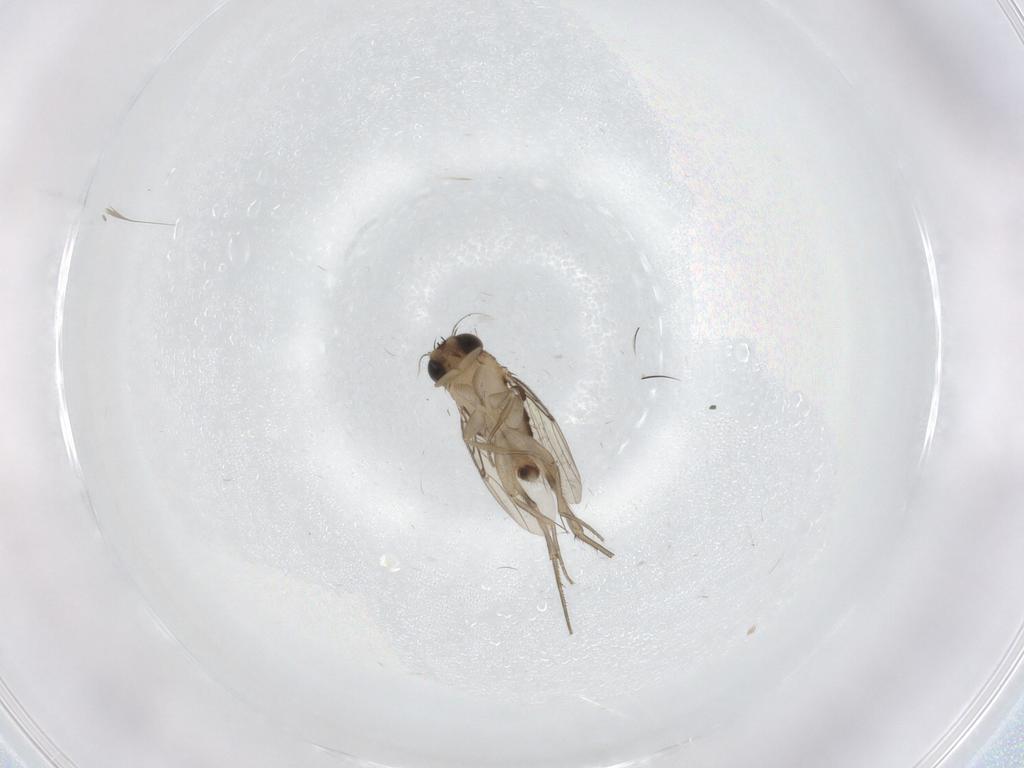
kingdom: Animalia
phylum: Arthropoda
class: Insecta
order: Diptera
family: Phoridae
